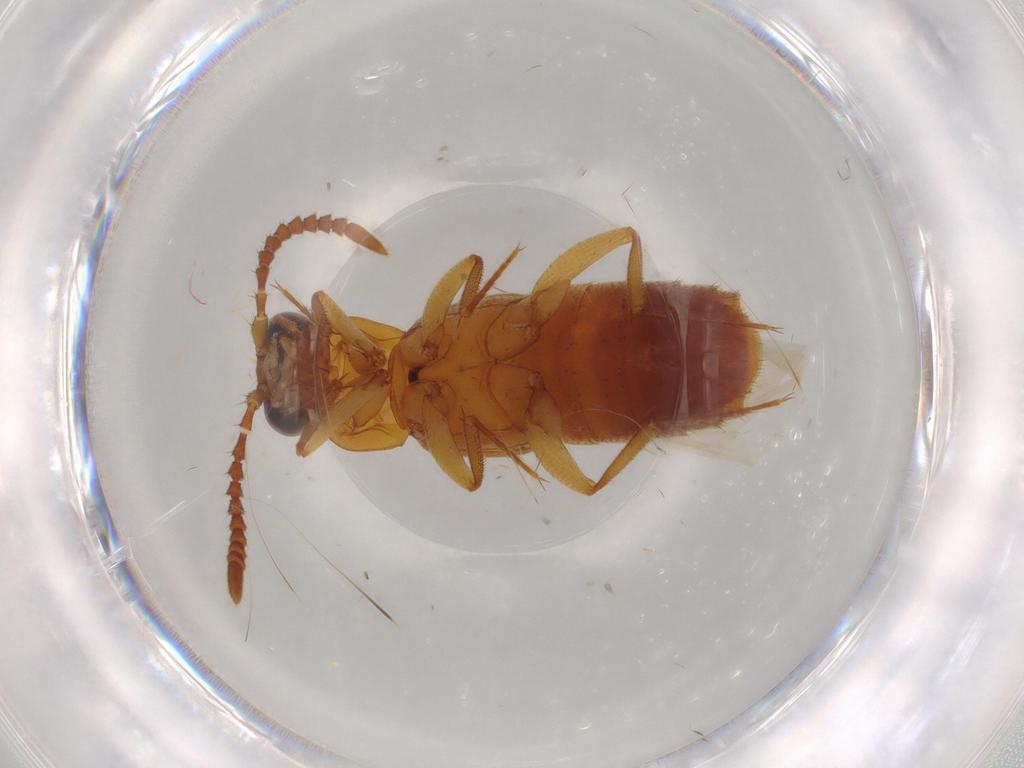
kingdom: Animalia
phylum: Arthropoda
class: Insecta
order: Coleoptera
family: Staphylinidae
